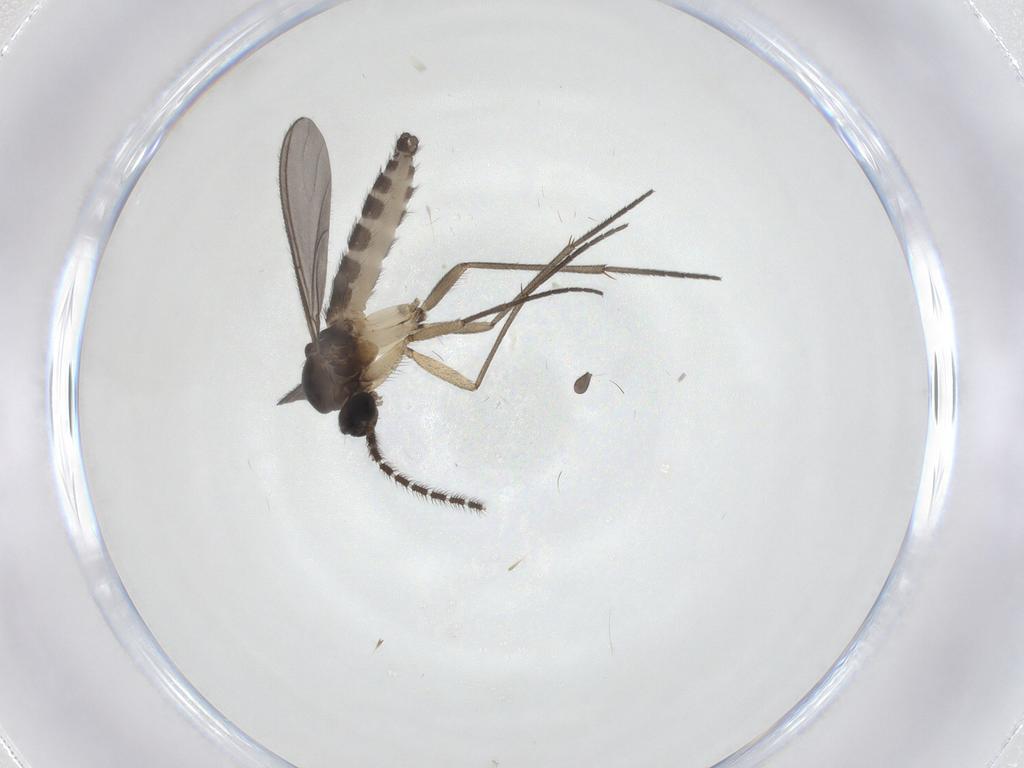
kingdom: Animalia
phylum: Arthropoda
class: Insecta
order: Diptera
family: Sciaridae
